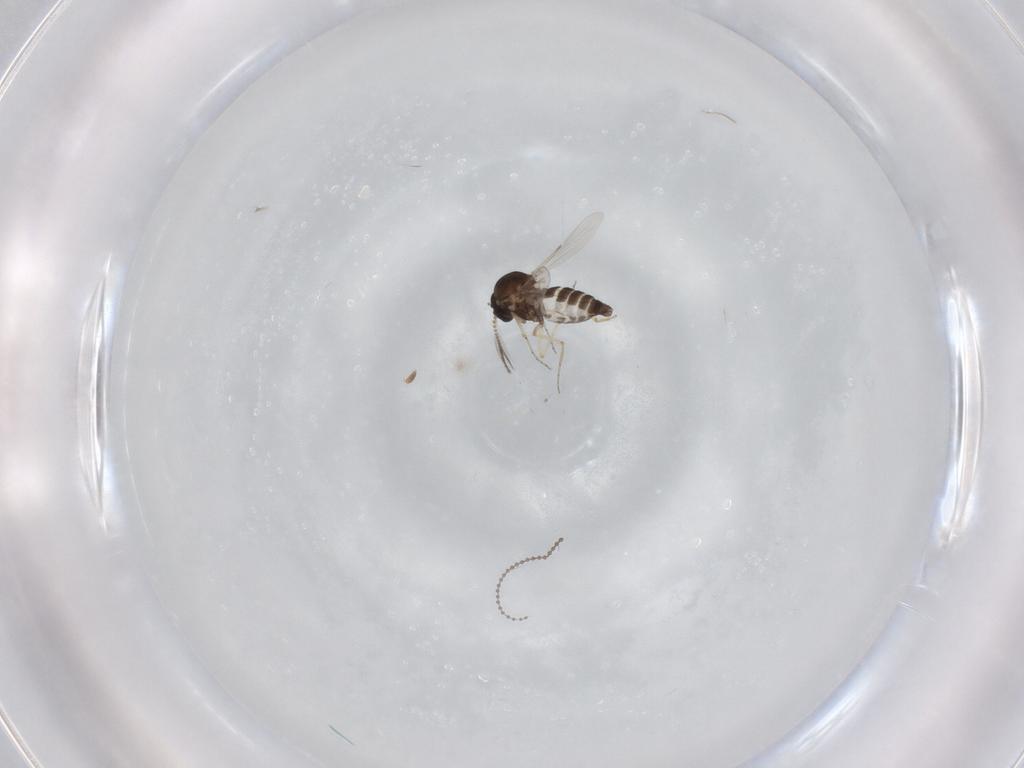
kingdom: Animalia
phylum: Arthropoda
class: Insecta
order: Diptera
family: Ceratopogonidae
